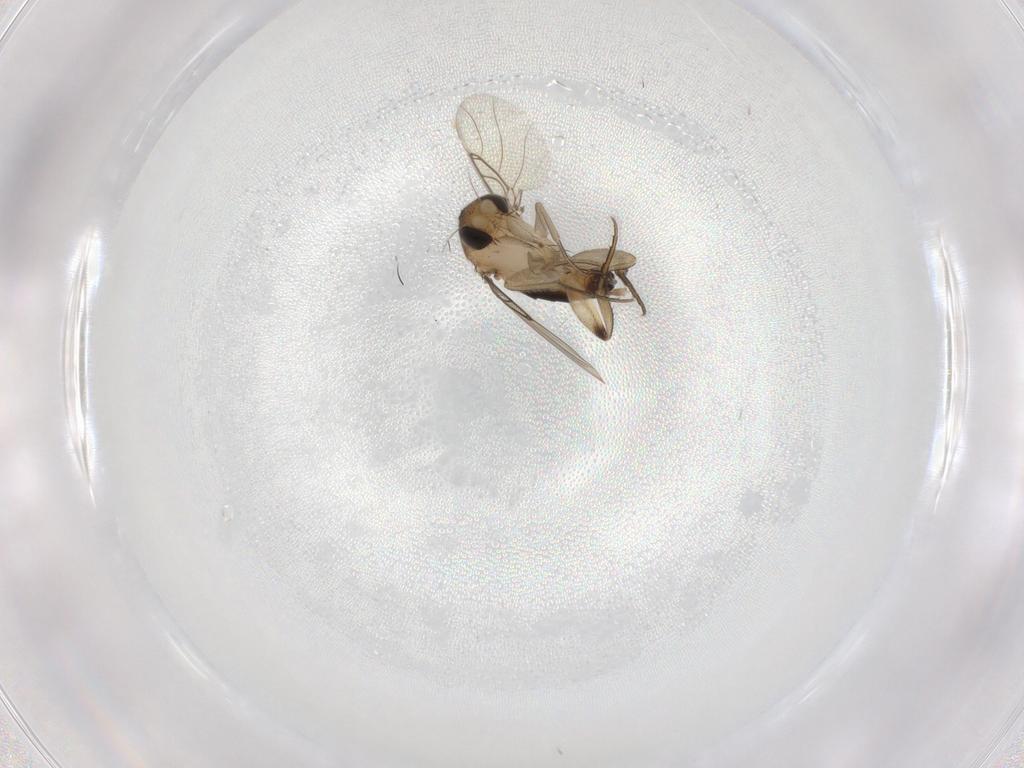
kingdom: Animalia
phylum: Arthropoda
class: Insecta
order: Diptera
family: Phoridae
